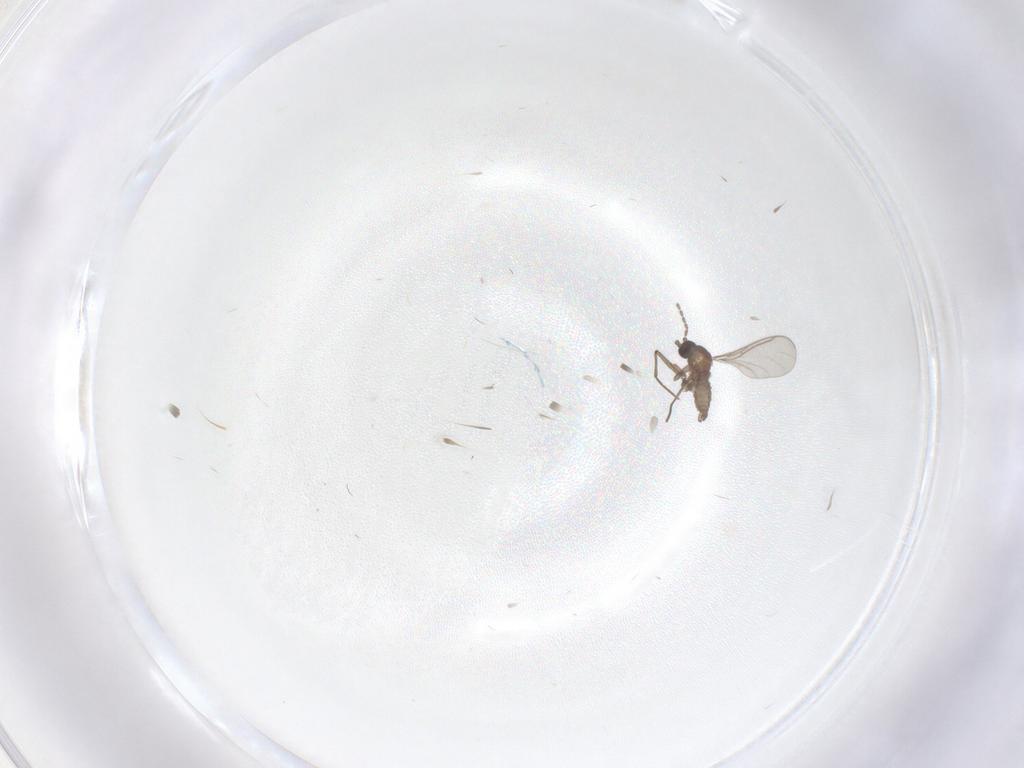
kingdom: Animalia
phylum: Arthropoda
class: Insecta
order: Diptera
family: Sciaridae
